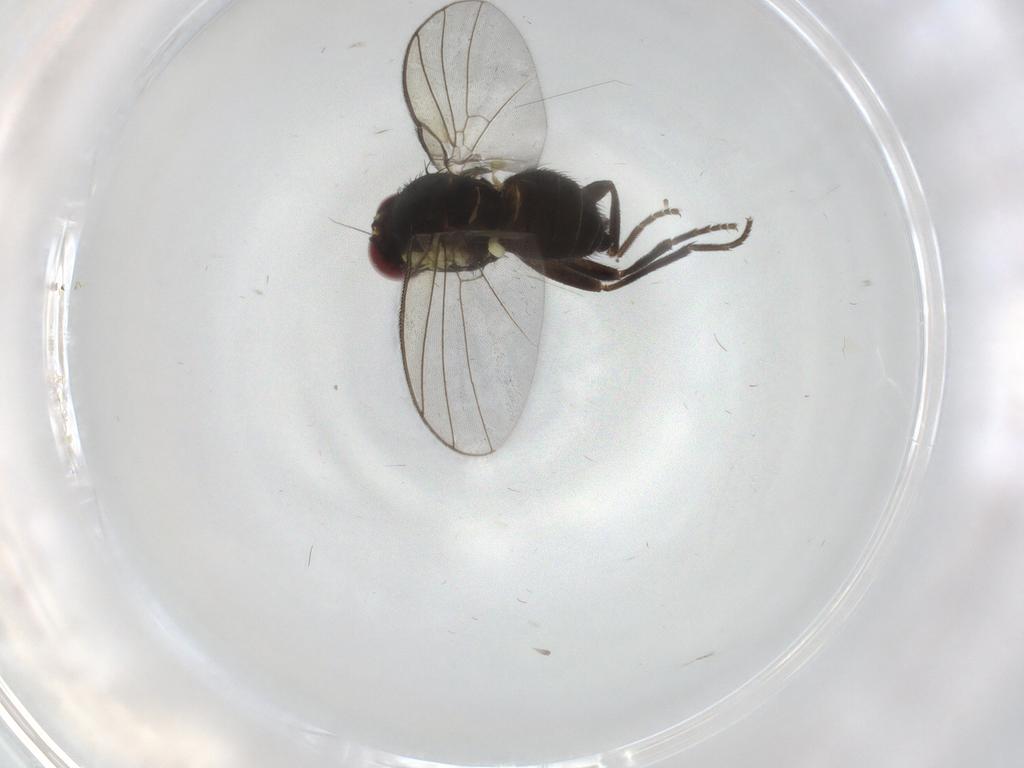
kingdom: Animalia
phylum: Arthropoda
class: Insecta
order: Diptera
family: Agromyzidae
